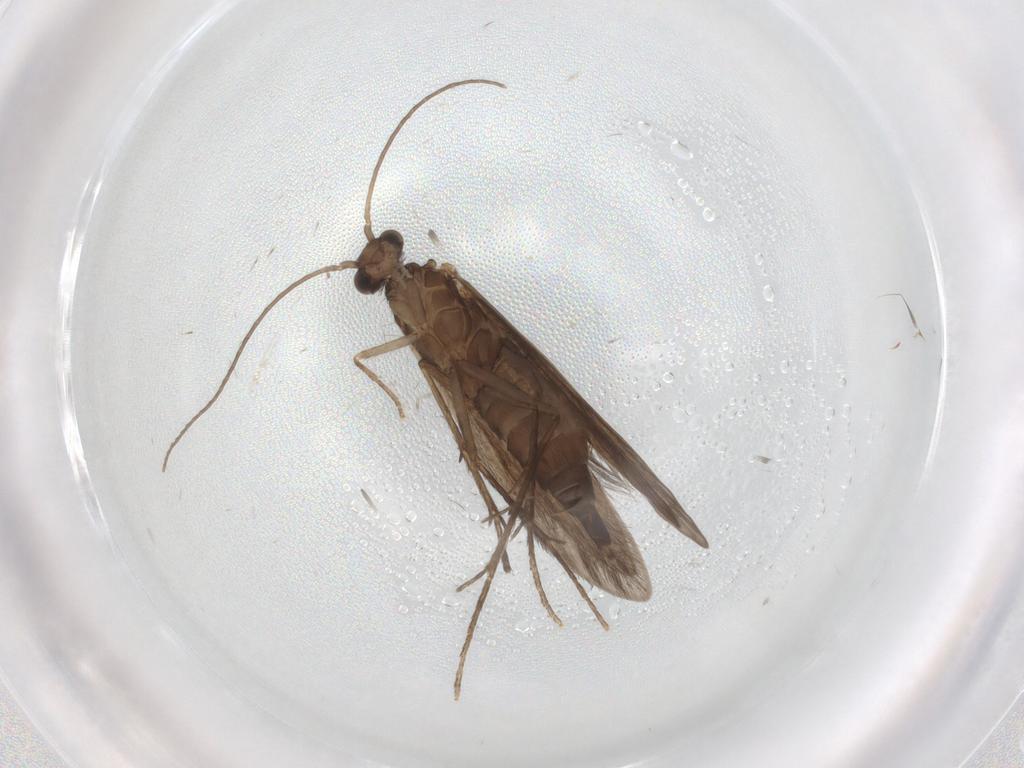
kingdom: Animalia
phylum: Arthropoda
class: Insecta
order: Trichoptera
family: Xiphocentronidae
